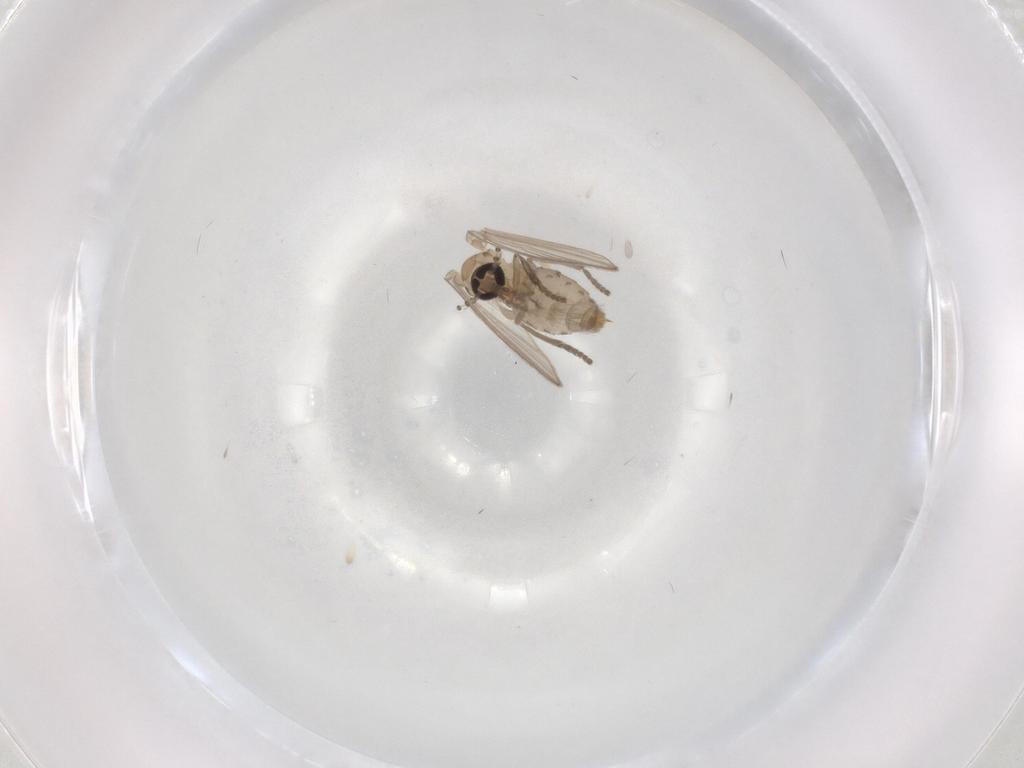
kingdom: Animalia
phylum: Arthropoda
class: Insecta
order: Diptera
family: Psychodidae
